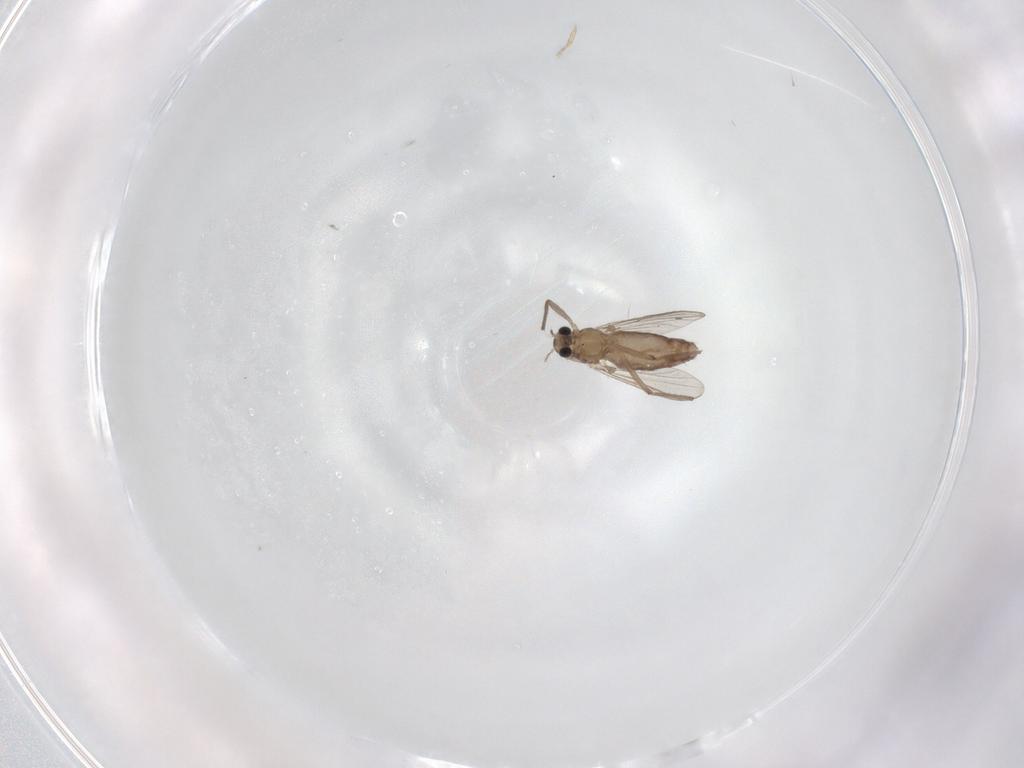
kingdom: Animalia
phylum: Arthropoda
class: Insecta
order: Diptera
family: Chironomidae
